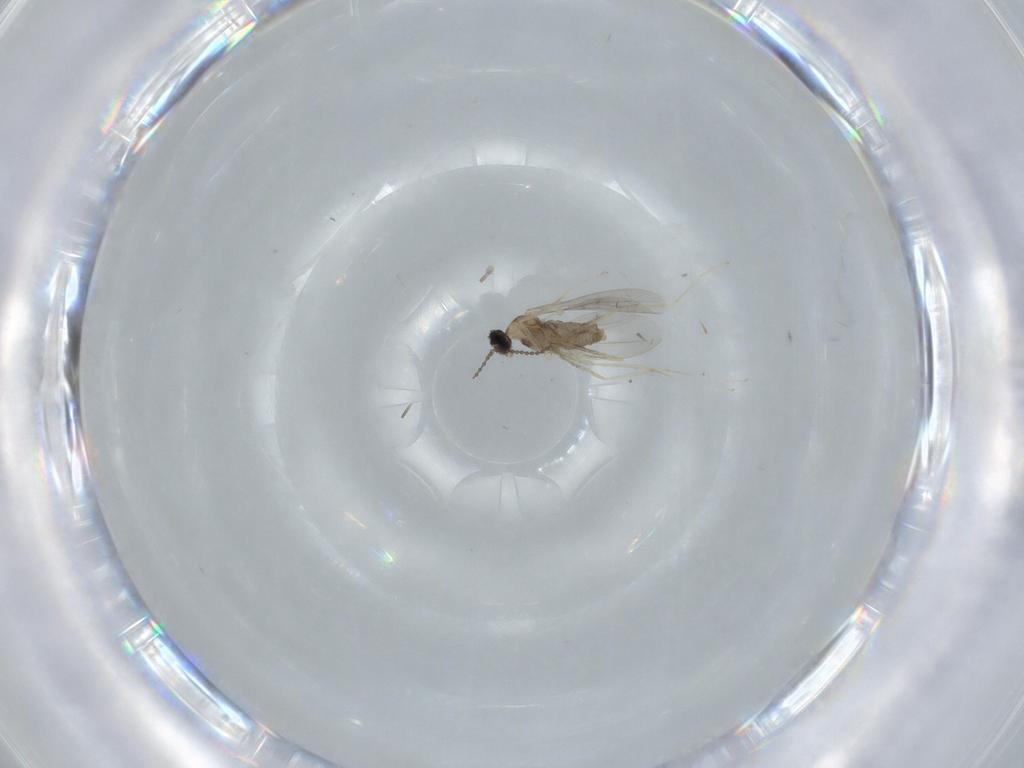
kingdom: Animalia
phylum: Arthropoda
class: Insecta
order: Diptera
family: Cecidomyiidae
